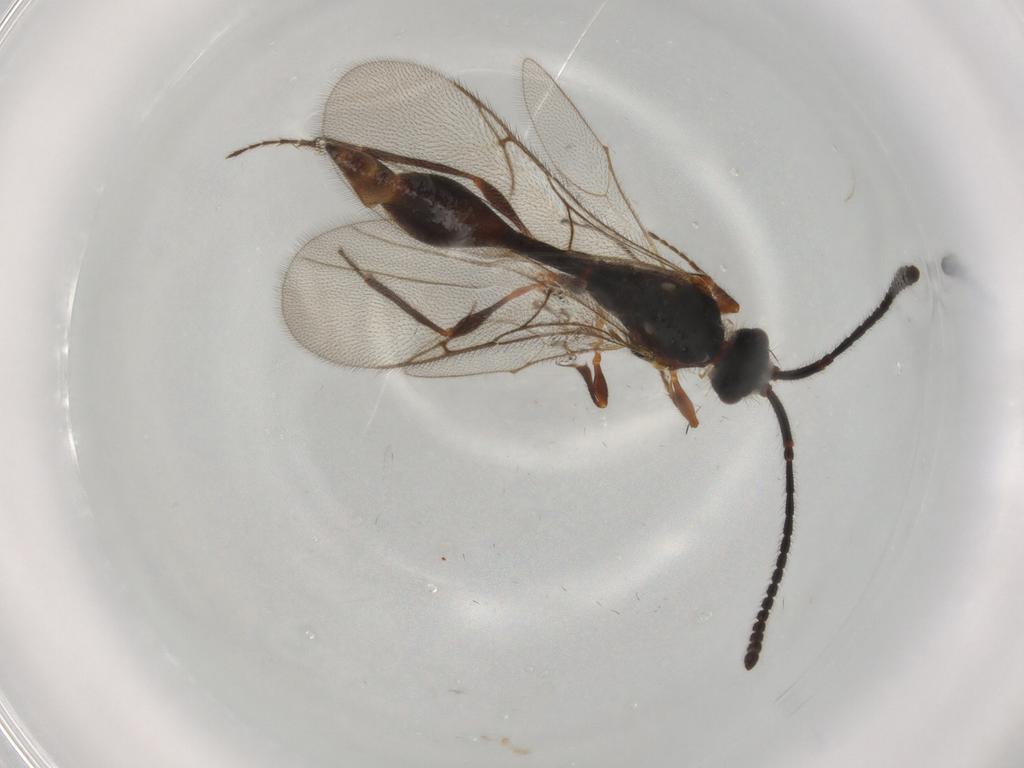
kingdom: Animalia
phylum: Arthropoda
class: Insecta
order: Hymenoptera
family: Diapriidae
